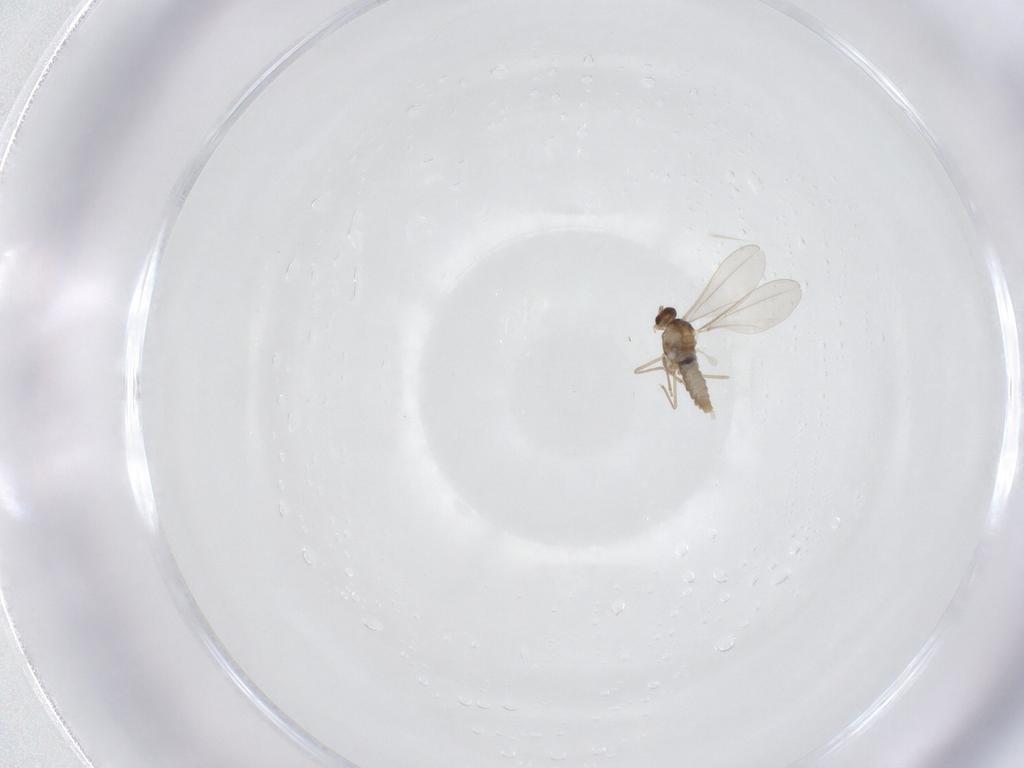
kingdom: Animalia
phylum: Arthropoda
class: Insecta
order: Diptera
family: Cecidomyiidae
